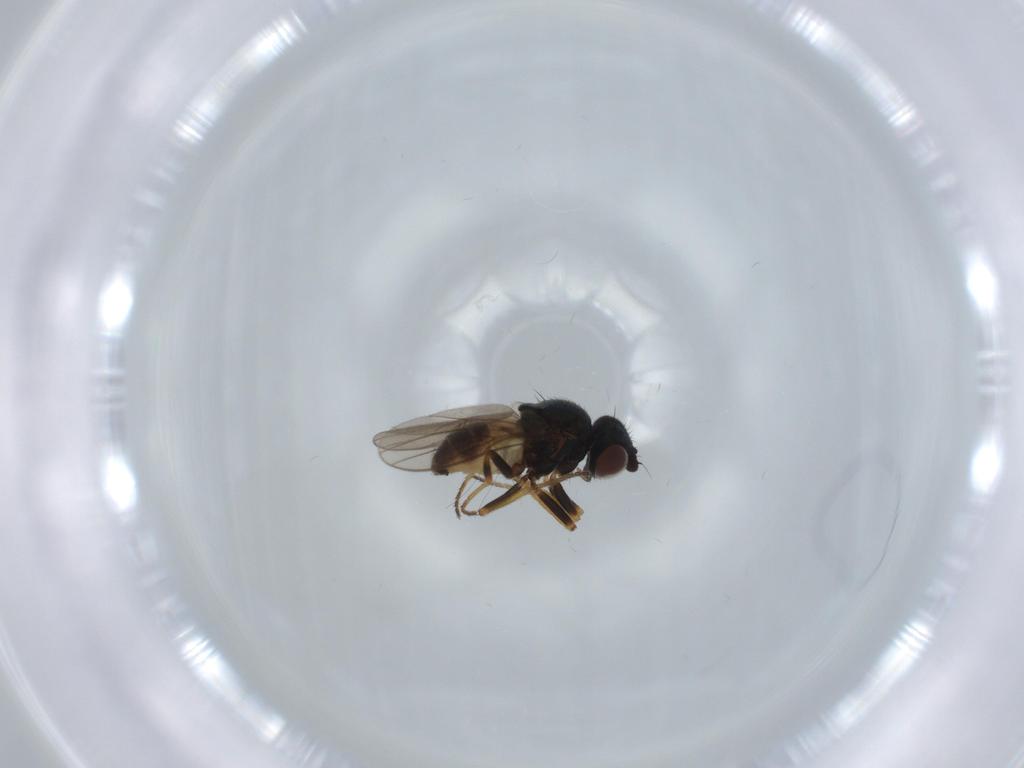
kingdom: Animalia
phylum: Arthropoda
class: Insecta
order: Diptera
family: Chloropidae
